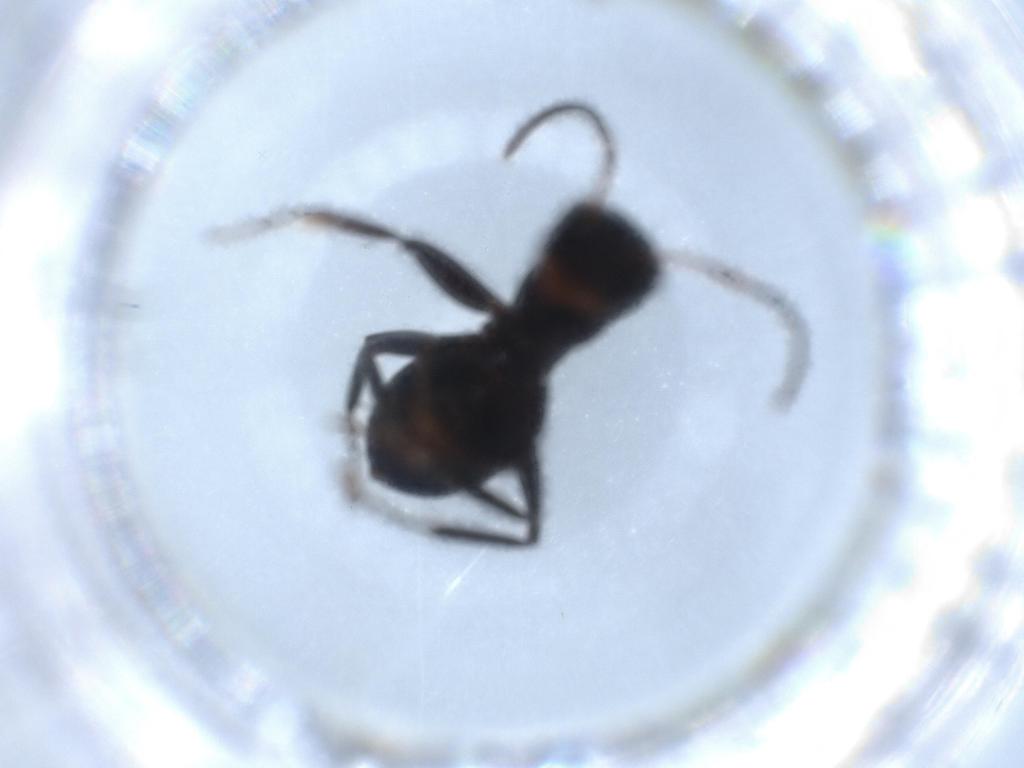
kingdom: Animalia
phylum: Arthropoda
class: Insecta
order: Hymenoptera
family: Formicidae
